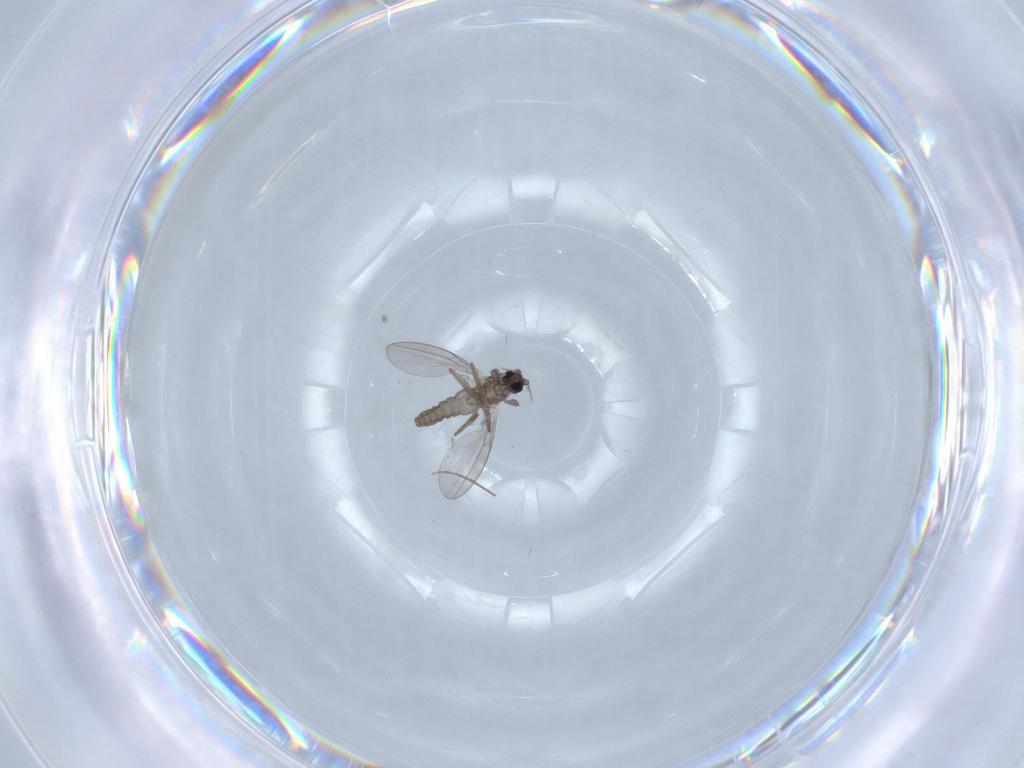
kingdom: Animalia
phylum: Arthropoda
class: Insecta
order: Diptera
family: Cecidomyiidae
